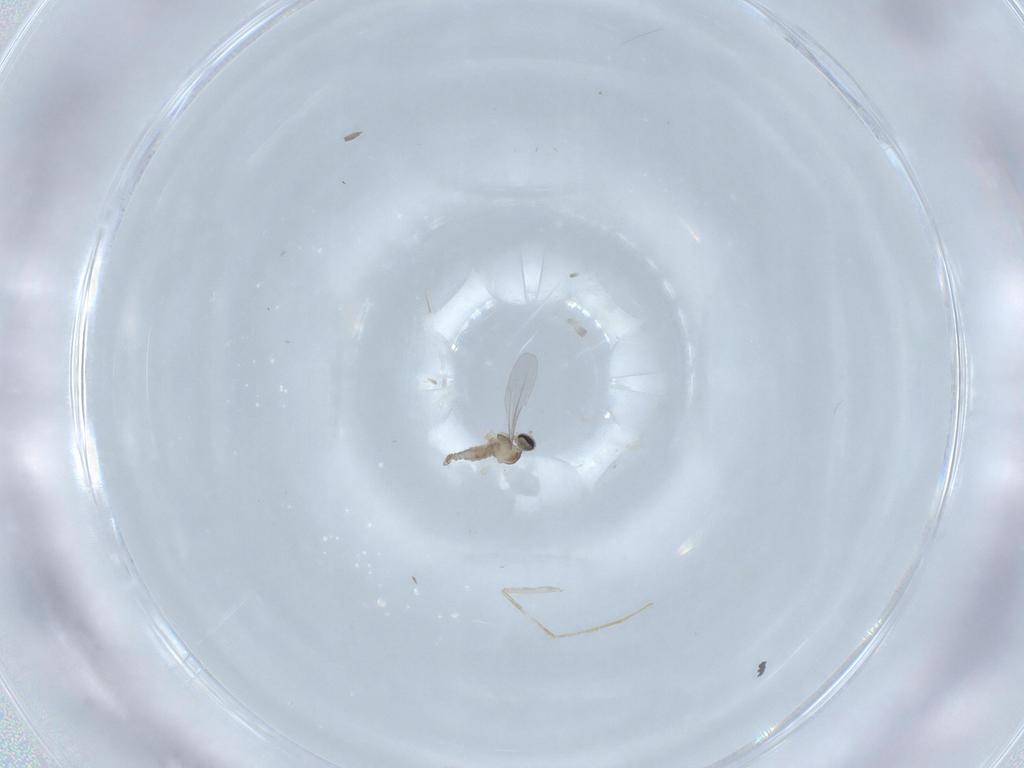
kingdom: Animalia
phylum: Arthropoda
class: Insecta
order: Diptera
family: Cecidomyiidae
